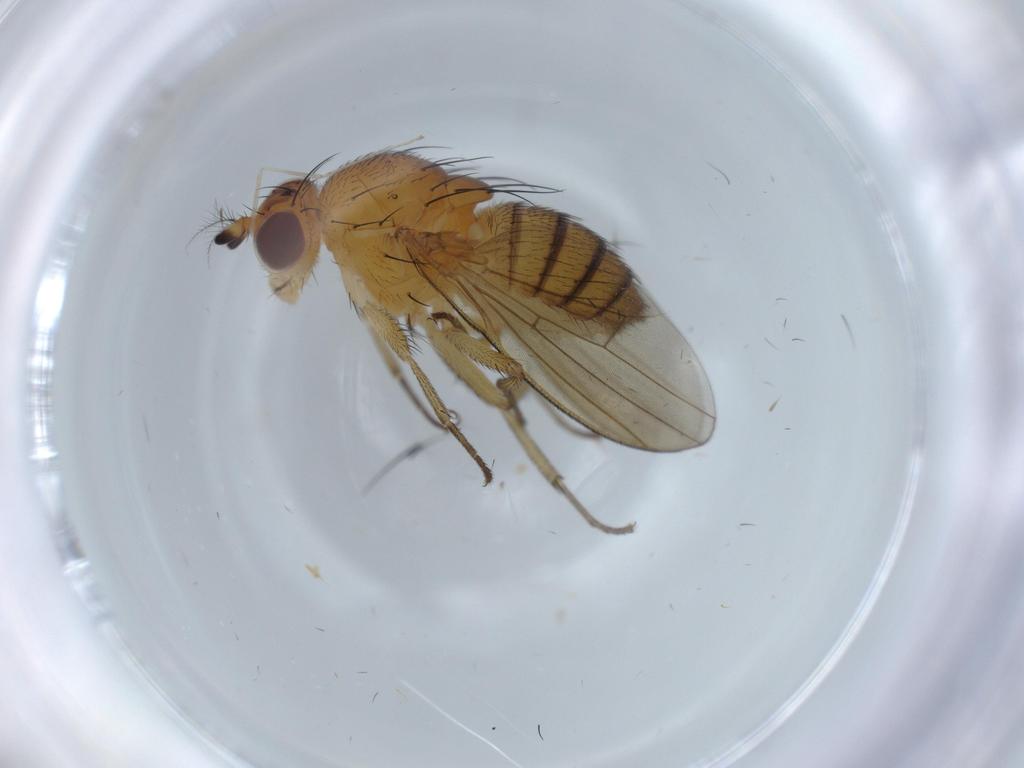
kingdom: Animalia
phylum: Arthropoda
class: Insecta
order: Diptera
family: Lauxaniidae
